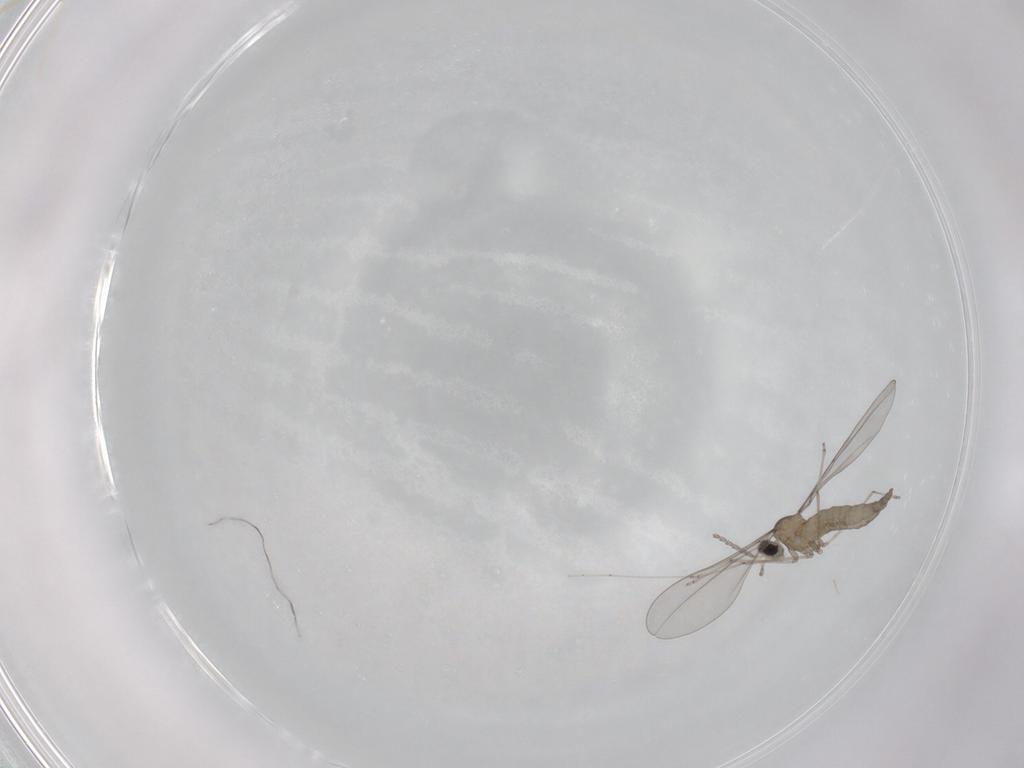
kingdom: Animalia
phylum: Arthropoda
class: Insecta
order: Diptera
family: Cecidomyiidae
